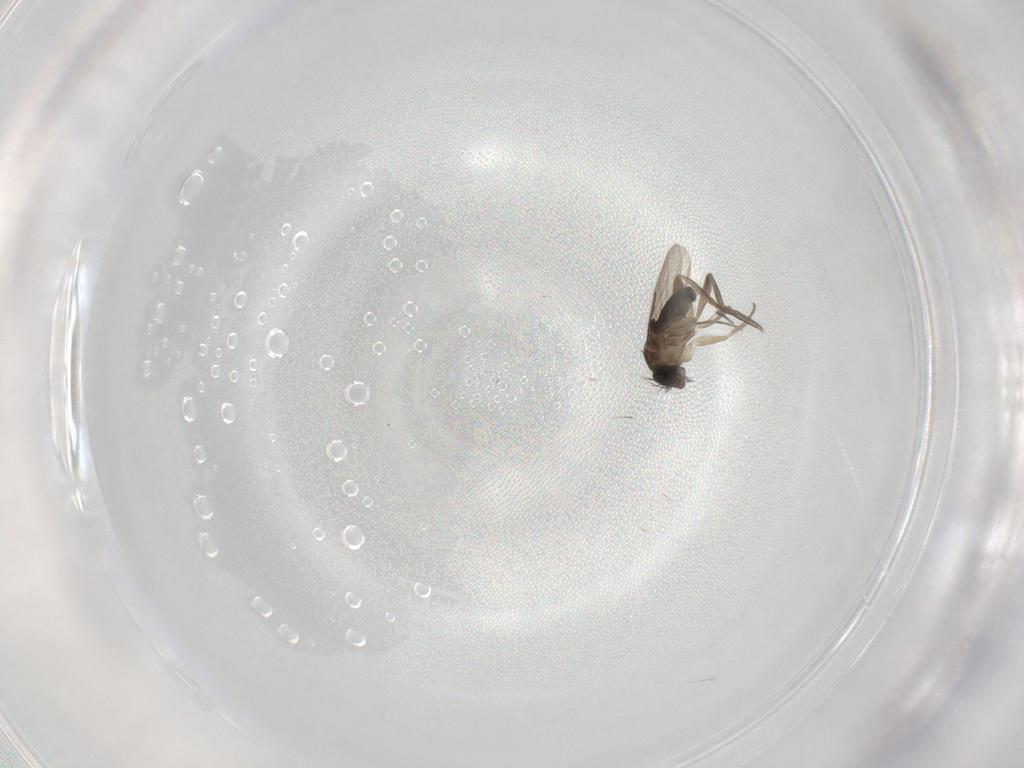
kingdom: Animalia
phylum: Arthropoda
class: Insecta
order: Diptera
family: Phoridae
